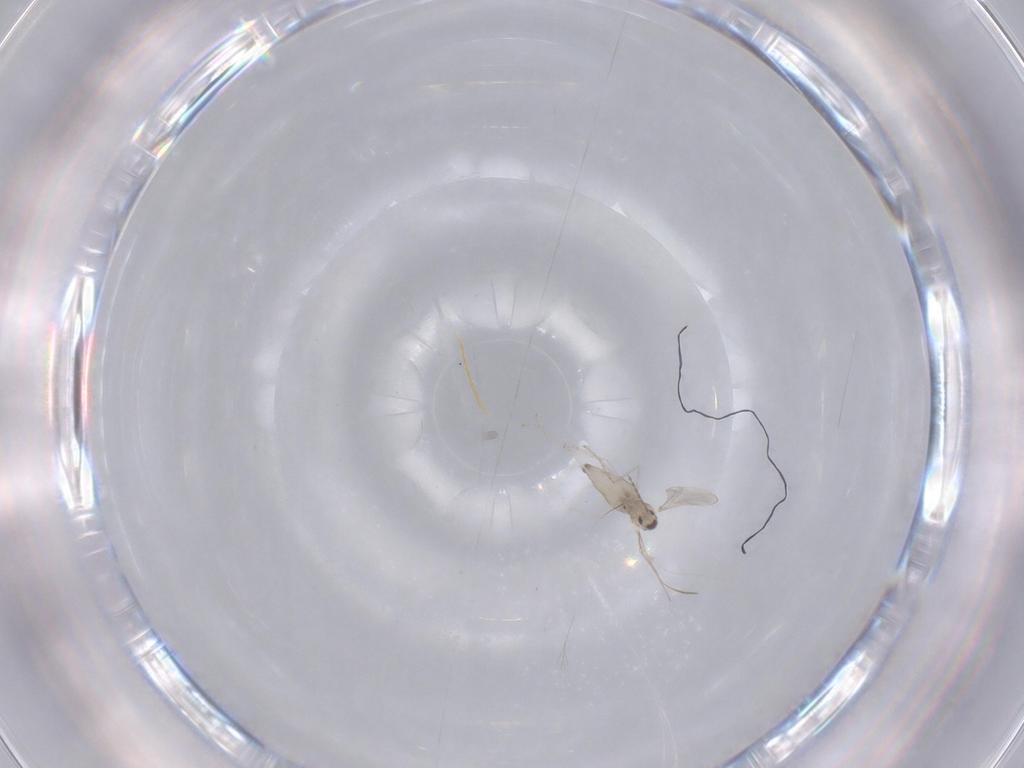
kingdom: Animalia
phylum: Arthropoda
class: Insecta
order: Diptera
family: Cecidomyiidae
